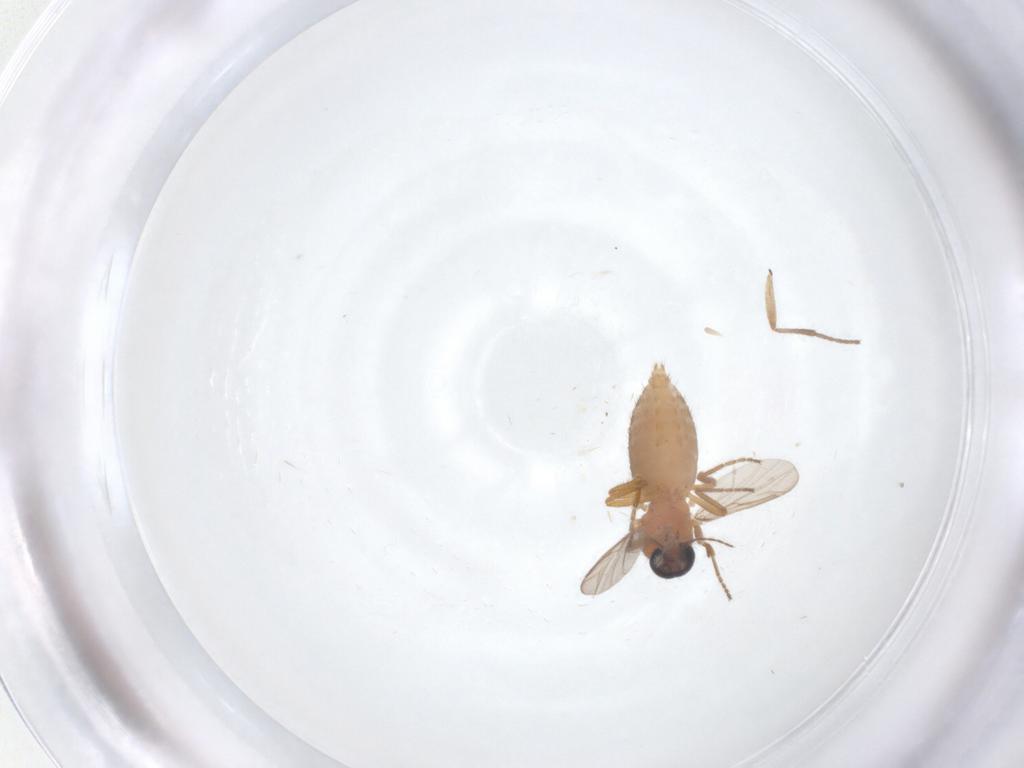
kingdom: Animalia
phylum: Arthropoda
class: Insecta
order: Diptera
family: Ceratopogonidae
